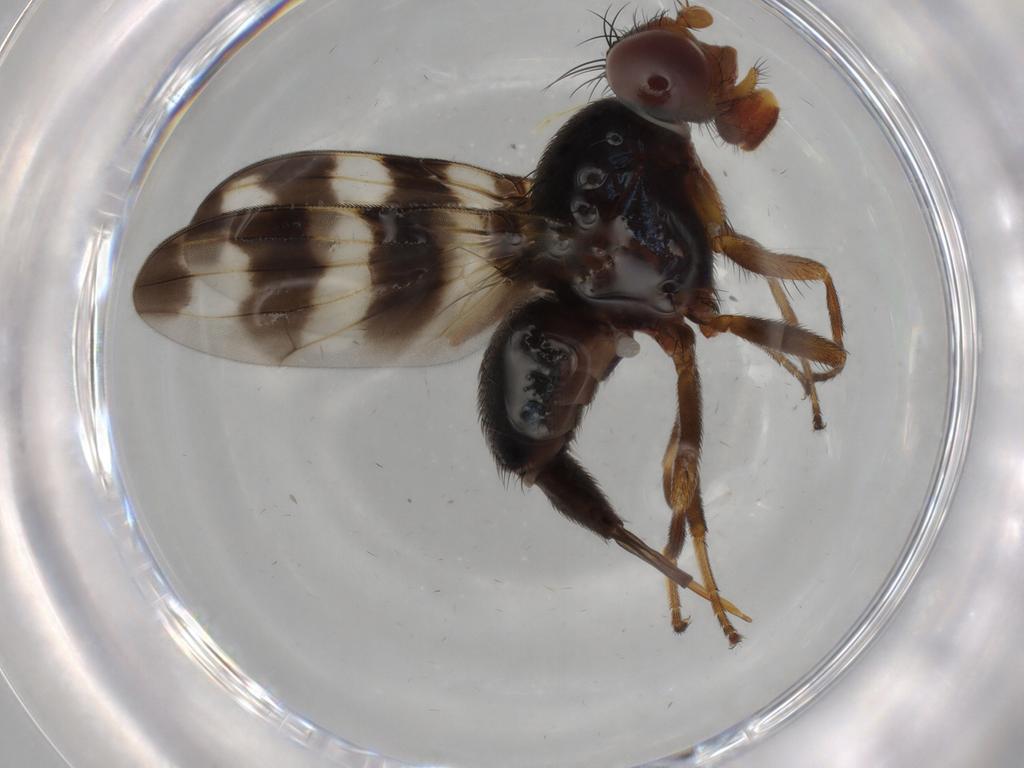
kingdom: Animalia
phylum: Arthropoda
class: Insecta
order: Diptera
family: Ulidiidae
